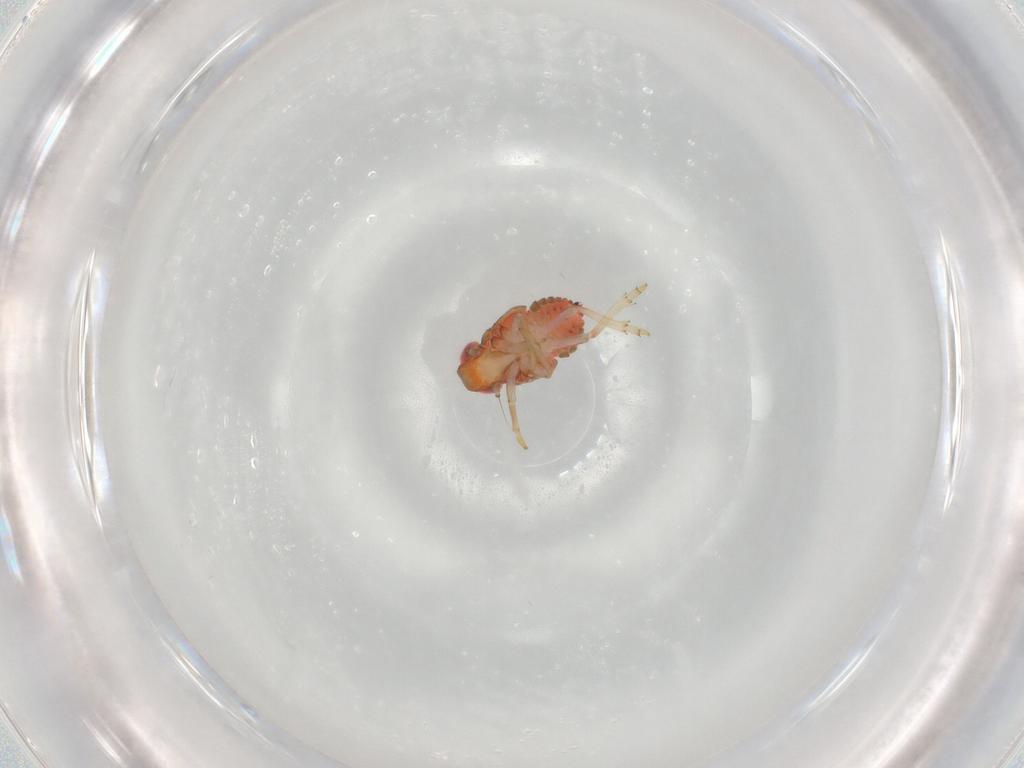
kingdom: Animalia
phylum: Arthropoda
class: Insecta
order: Hemiptera
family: Issidae
